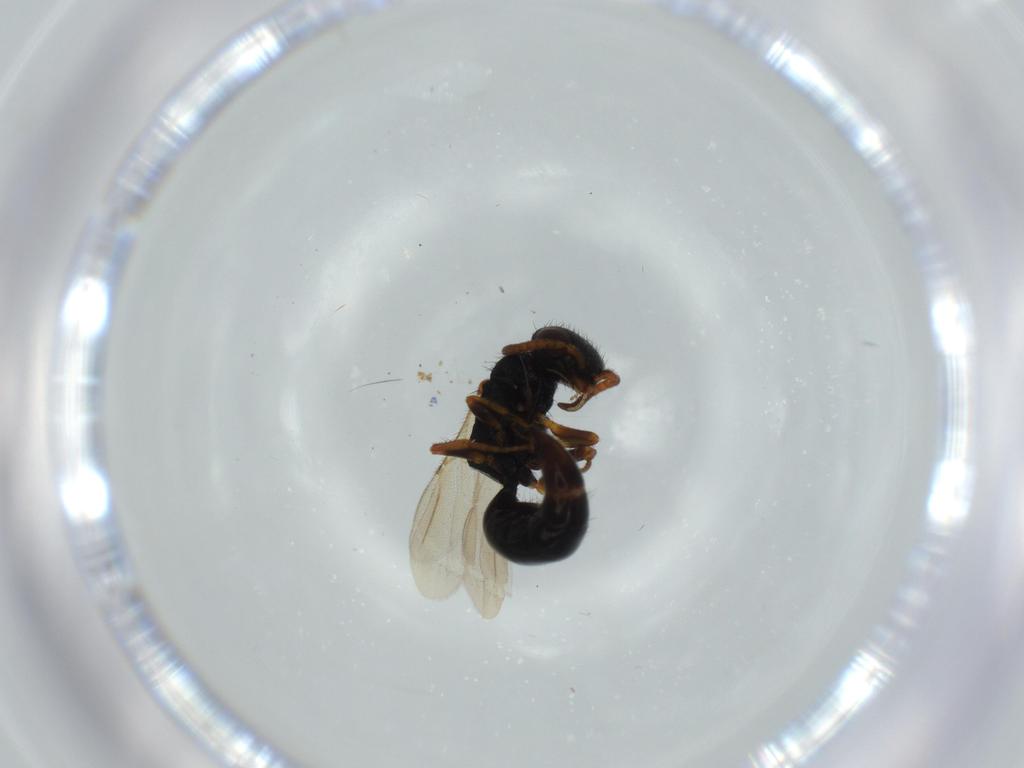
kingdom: Animalia
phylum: Arthropoda
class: Insecta
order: Hymenoptera
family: Bethylidae
